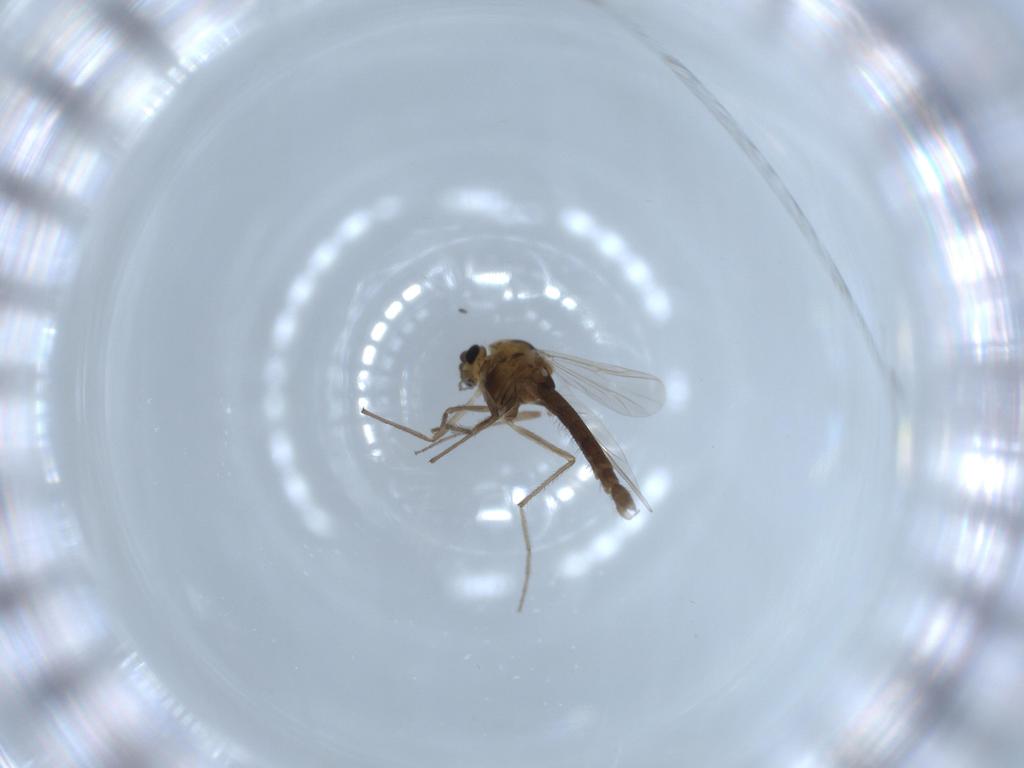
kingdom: Animalia
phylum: Arthropoda
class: Insecta
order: Diptera
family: Chironomidae
